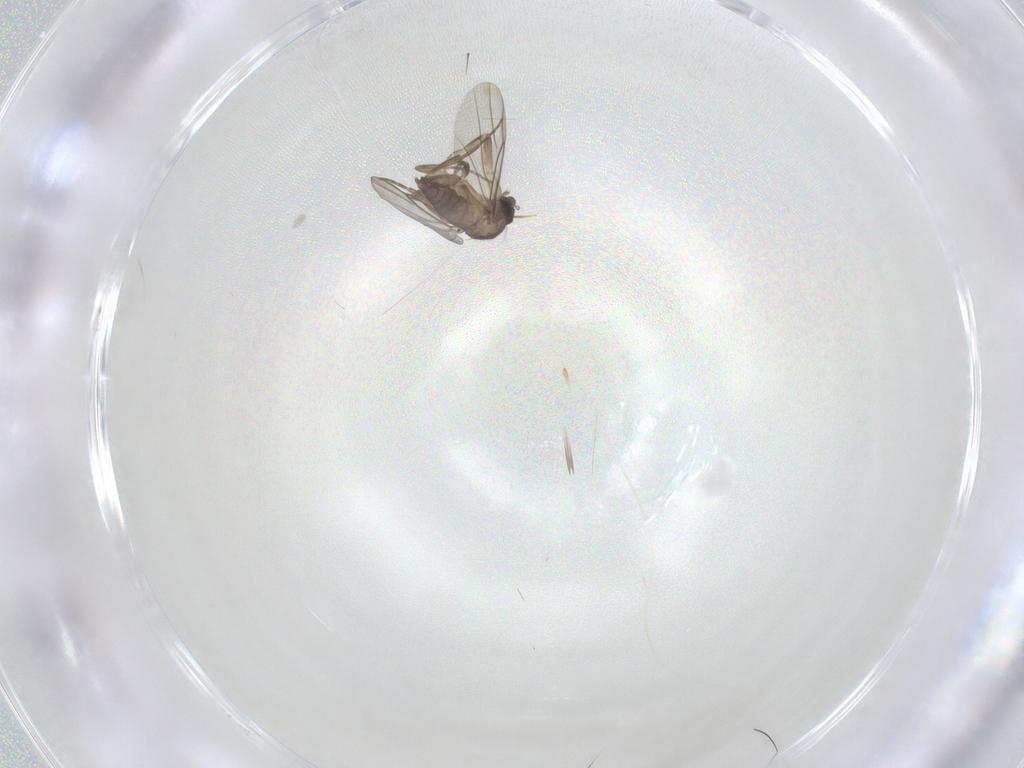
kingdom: Animalia
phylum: Arthropoda
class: Insecta
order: Diptera
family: Phoridae
